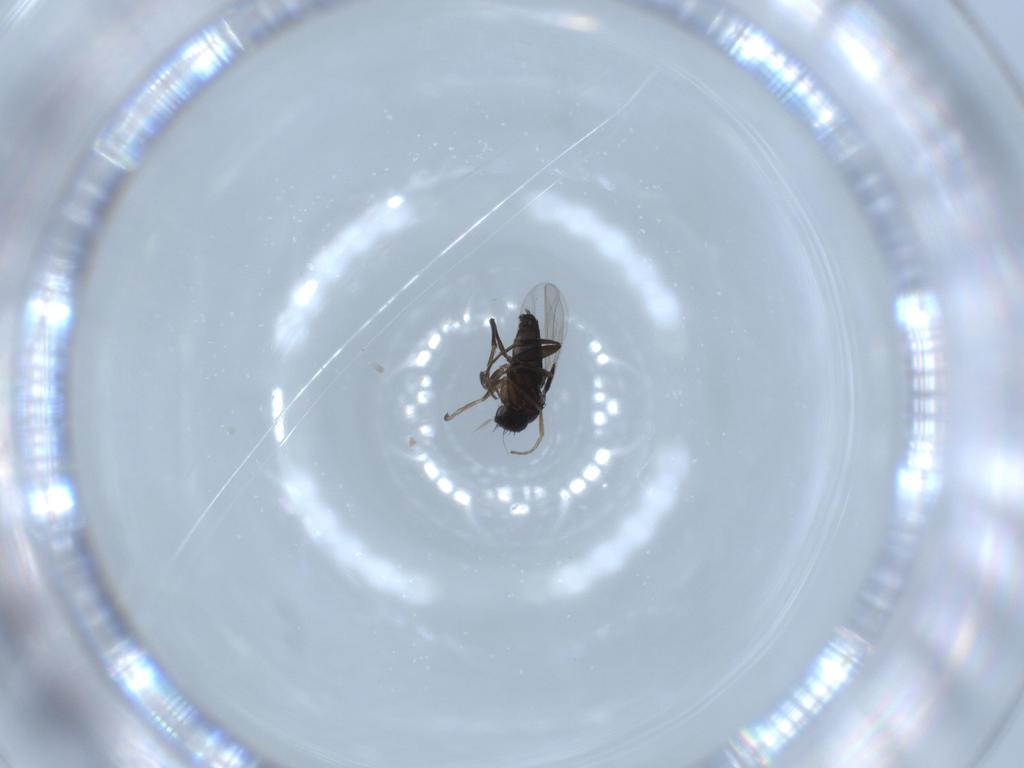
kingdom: Animalia
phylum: Arthropoda
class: Insecta
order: Diptera
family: Phoridae
